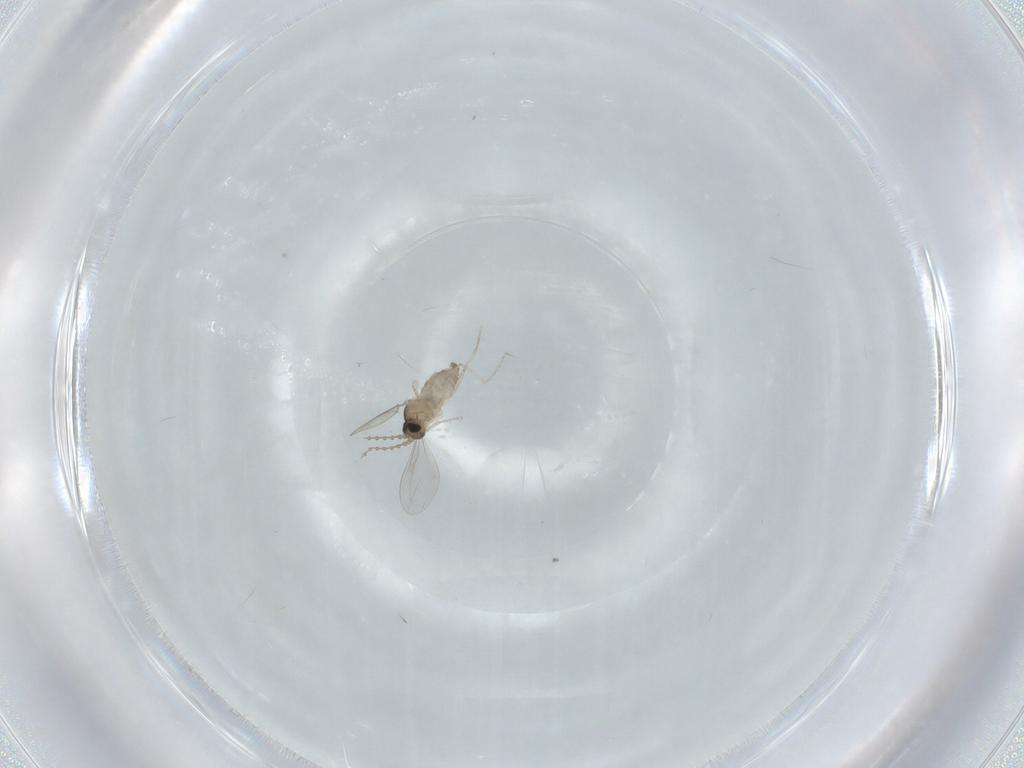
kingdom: Animalia
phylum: Arthropoda
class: Insecta
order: Diptera
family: Cecidomyiidae
